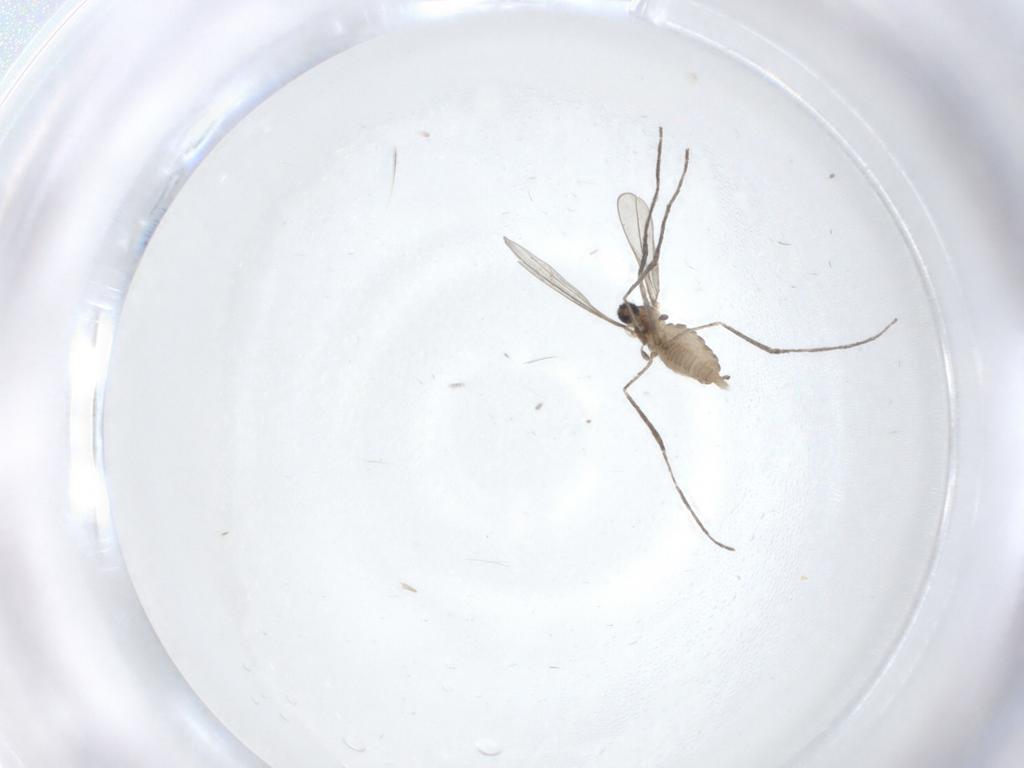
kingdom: Animalia
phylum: Arthropoda
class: Insecta
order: Diptera
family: Cecidomyiidae
